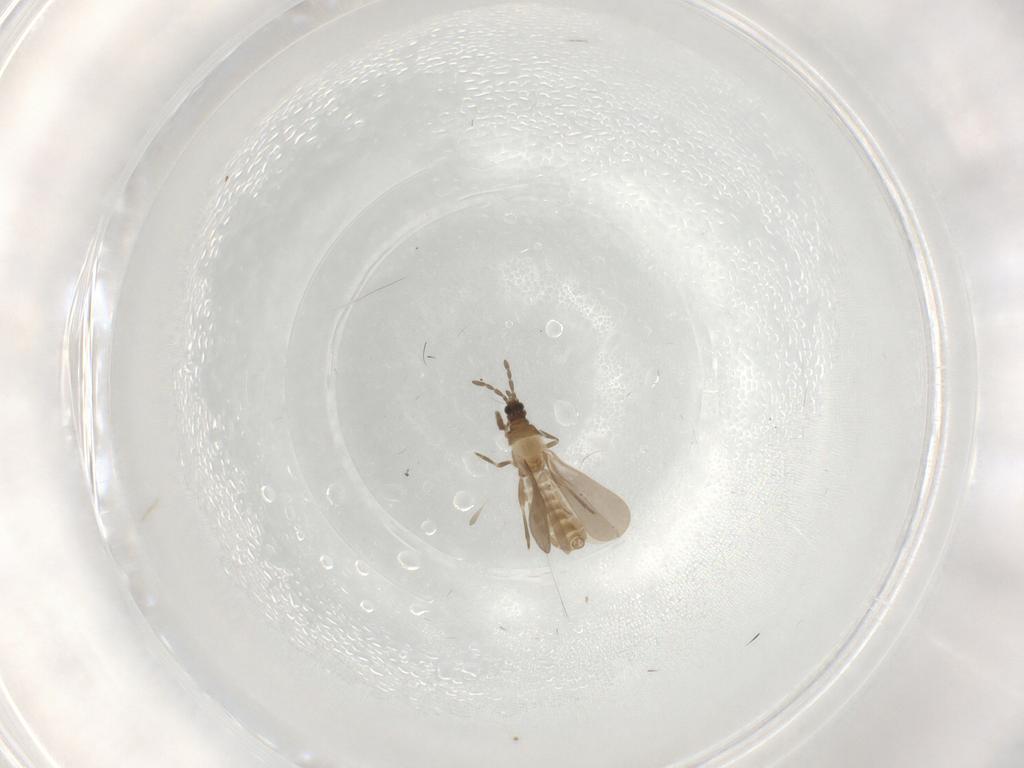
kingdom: Animalia
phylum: Arthropoda
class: Insecta
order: Hemiptera
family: Enicocephalidae
